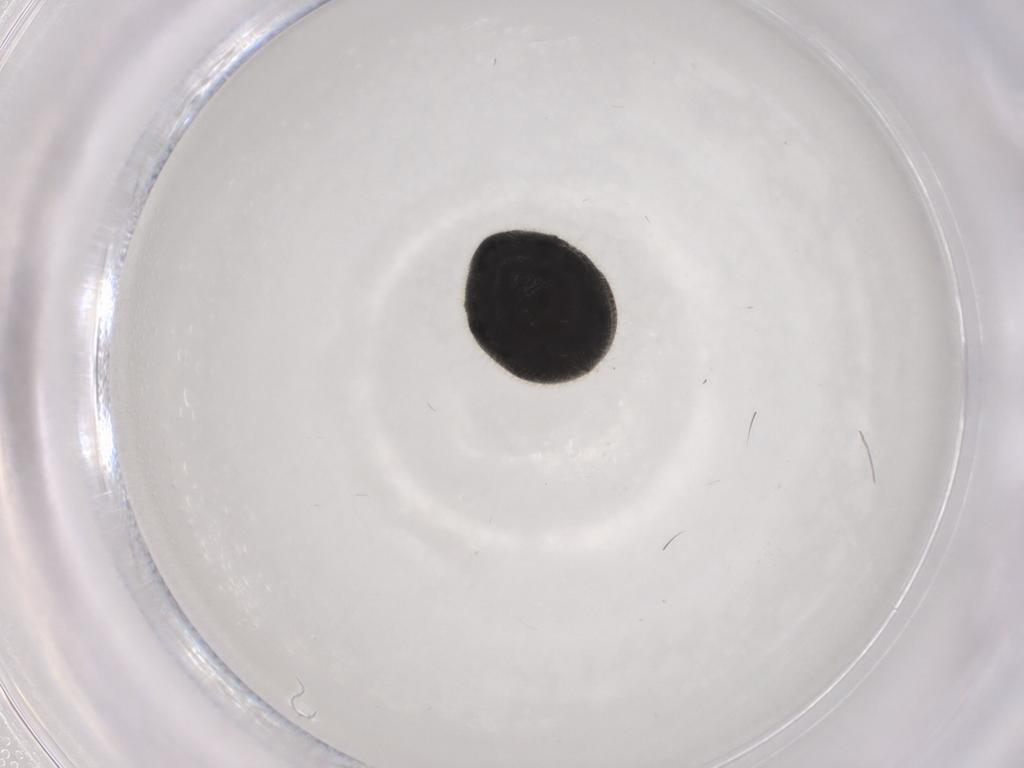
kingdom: Animalia
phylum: Arthropoda
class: Insecta
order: Coleoptera
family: Ptinidae
